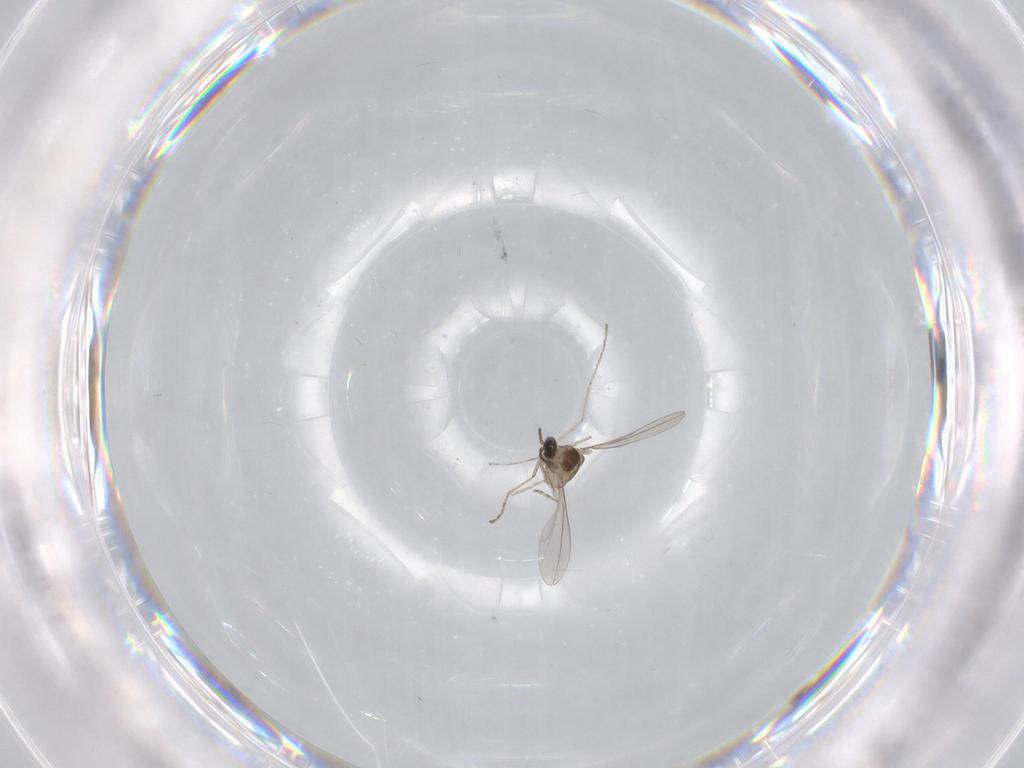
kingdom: Animalia
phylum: Arthropoda
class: Insecta
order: Diptera
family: Cecidomyiidae
